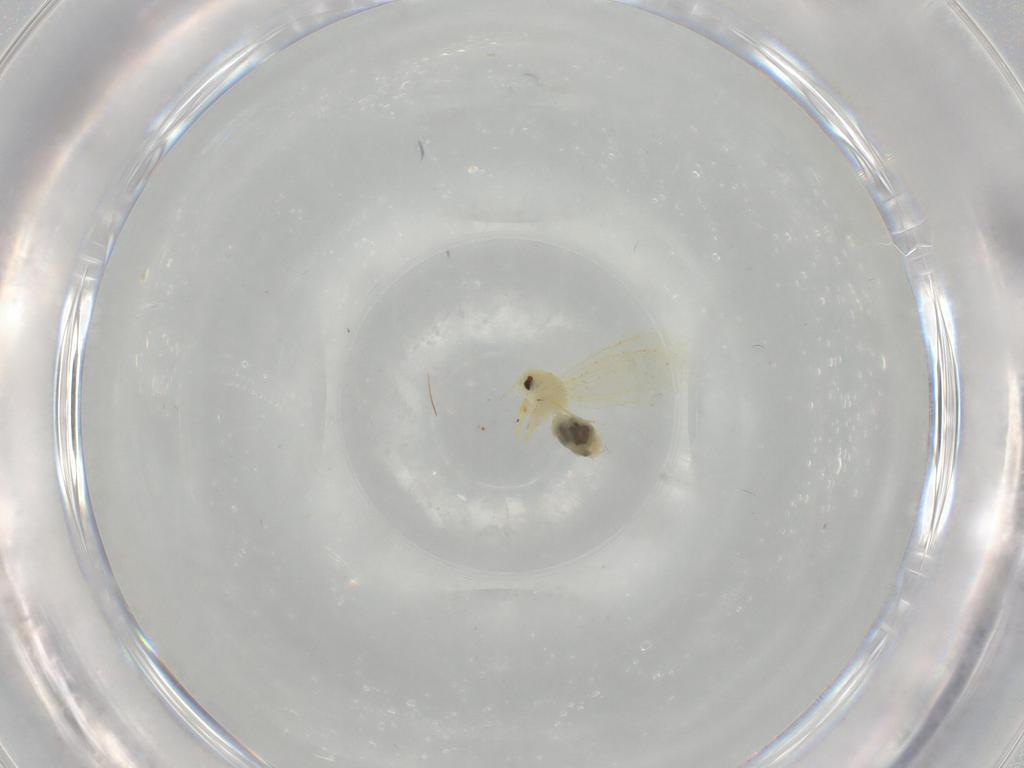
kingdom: Animalia
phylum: Arthropoda
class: Insecta
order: Hemiptera
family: Aleyrodidae
